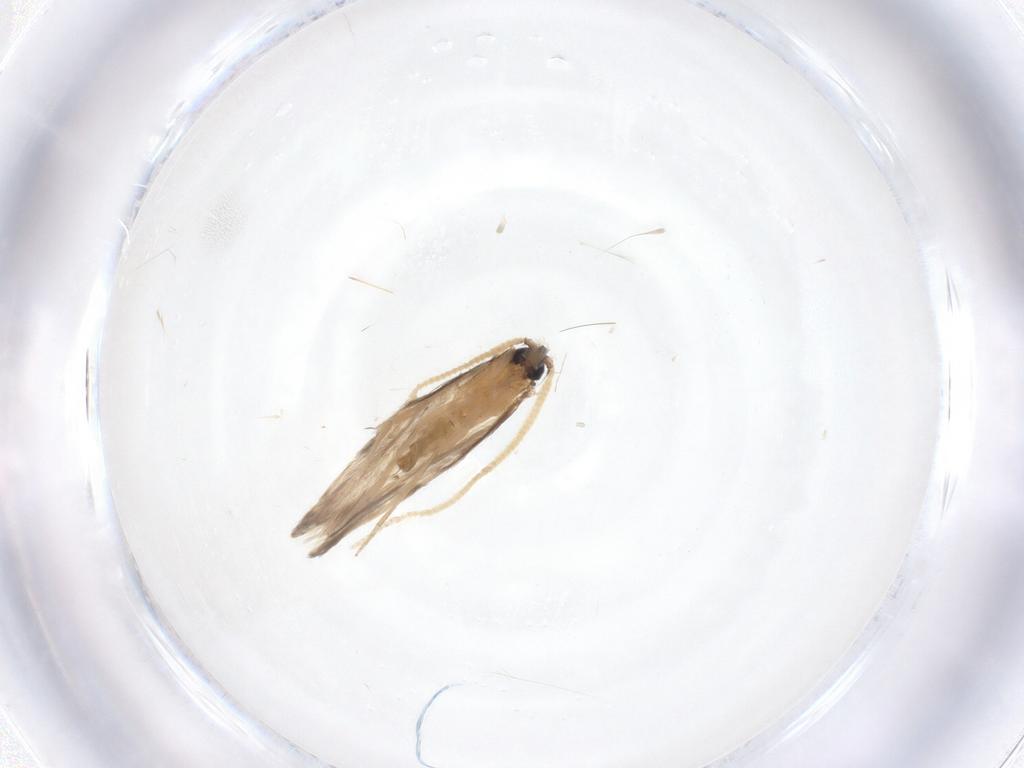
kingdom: Animalia
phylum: Arthropoda
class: Insecta
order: Trichoptera
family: Hydroptilidae
